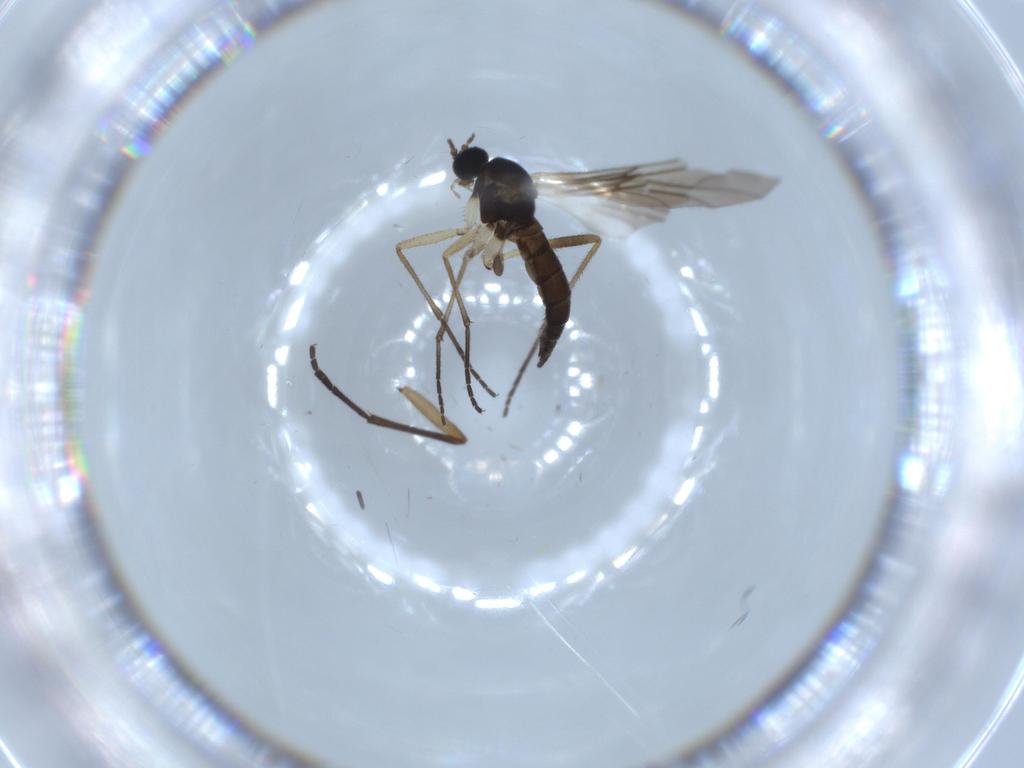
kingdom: Animalia
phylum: Arthropoda
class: Insecta
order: Diptera
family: Sciaridae
